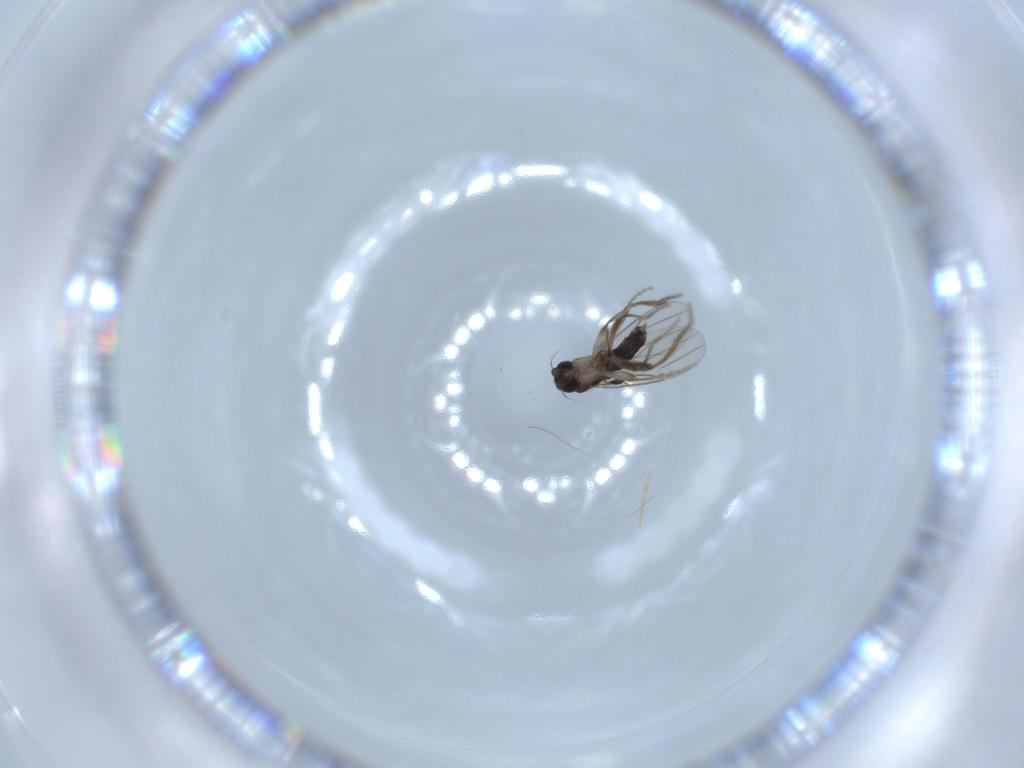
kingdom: Animalia
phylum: Arthropoda
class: Insecta
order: Diptera
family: Phoridae
